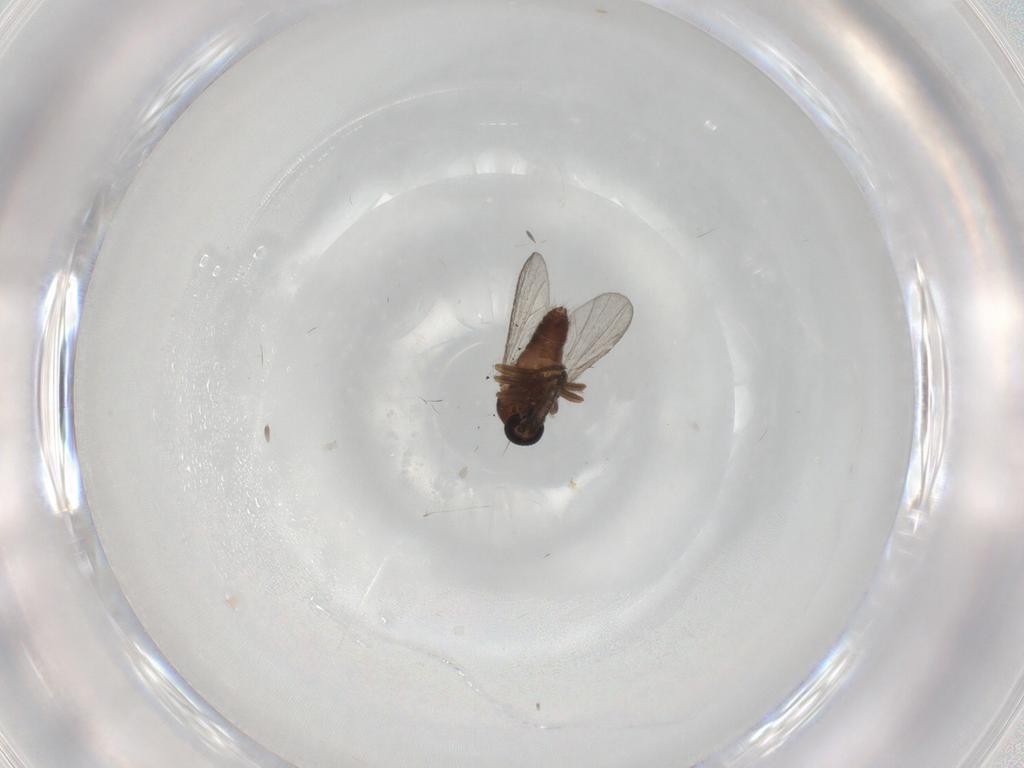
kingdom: Animalia
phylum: Arthropoda
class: Insecta
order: Diptera
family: Ceratopogonidae
